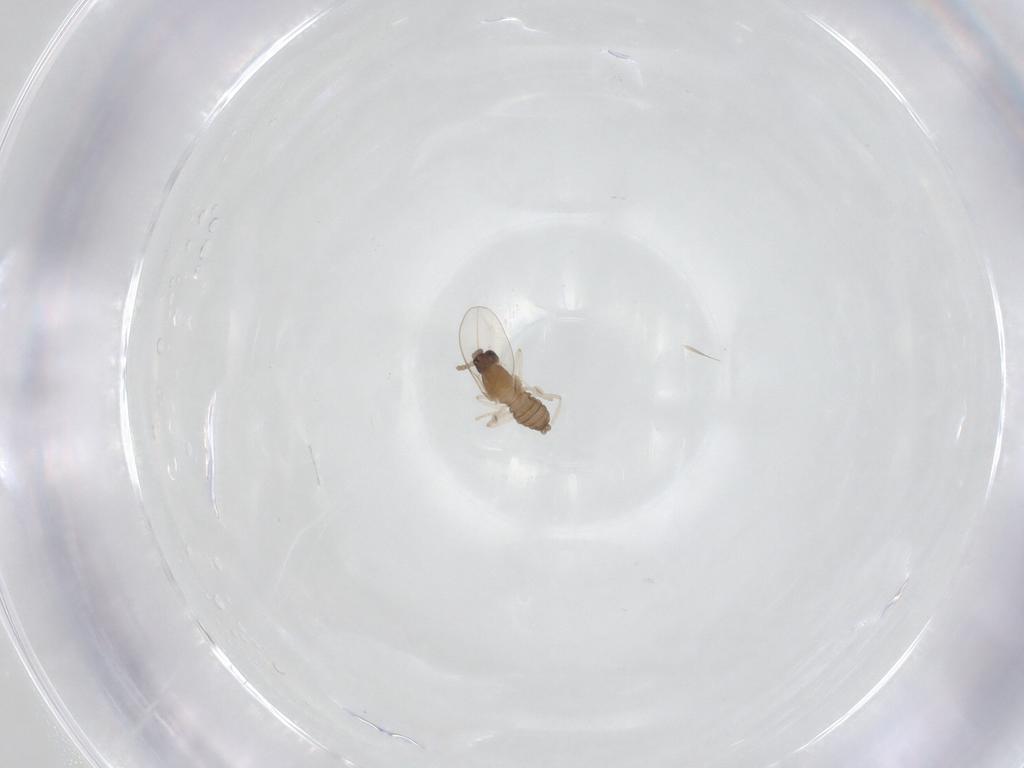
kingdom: Animalia
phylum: Arthropoda
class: Insecta
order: Diptera
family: Cecidomyiidae
